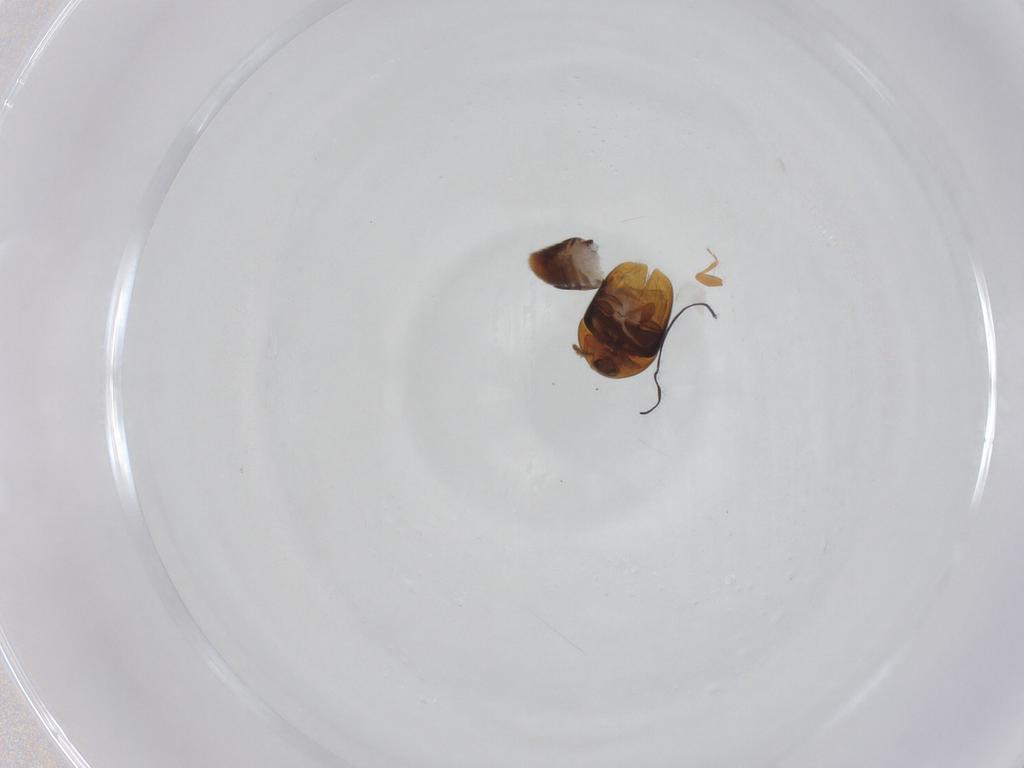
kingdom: Animalia
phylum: Arthropoda
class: Insecta
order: Coleoptera
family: Corylophidae
